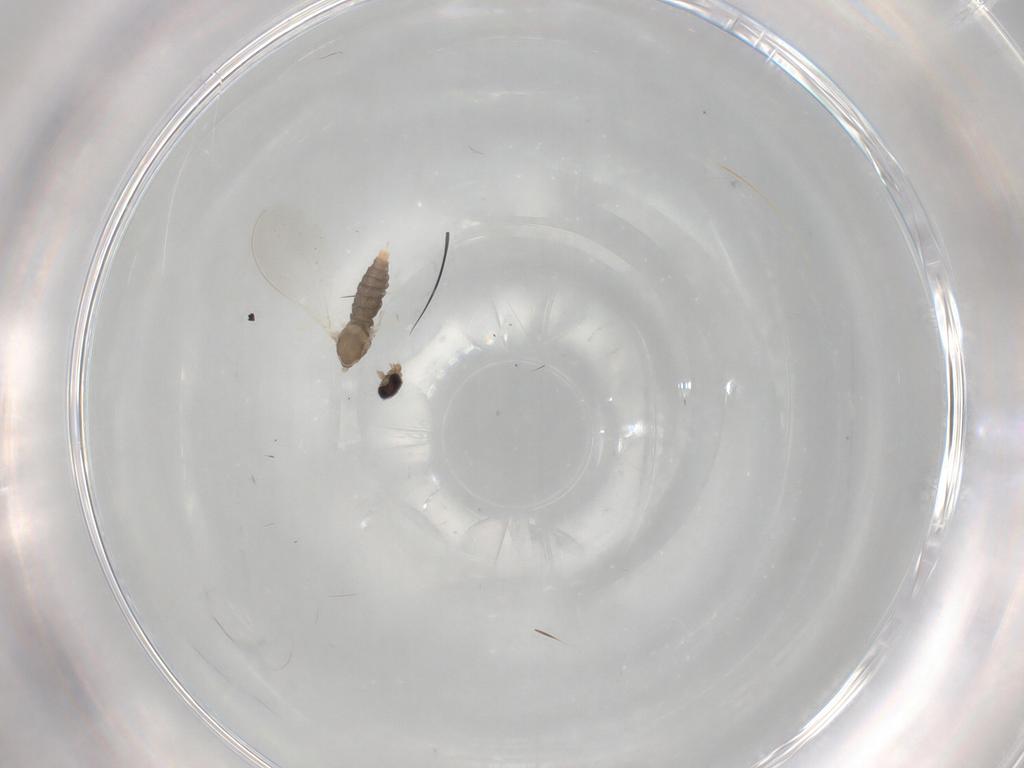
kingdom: Animalia
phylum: Arthropoda
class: Insecta
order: Diptera
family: Cecidomyiidae
